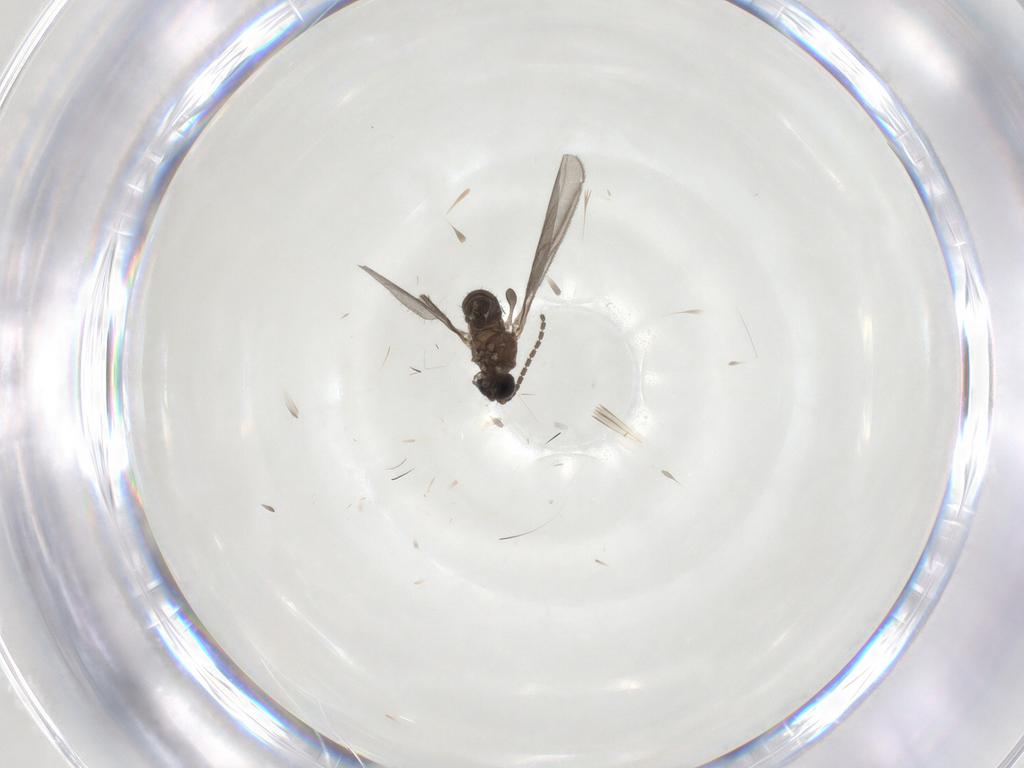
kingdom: Animalia
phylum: Arthropoda
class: Insecta
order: Diptera
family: Sciaridae
